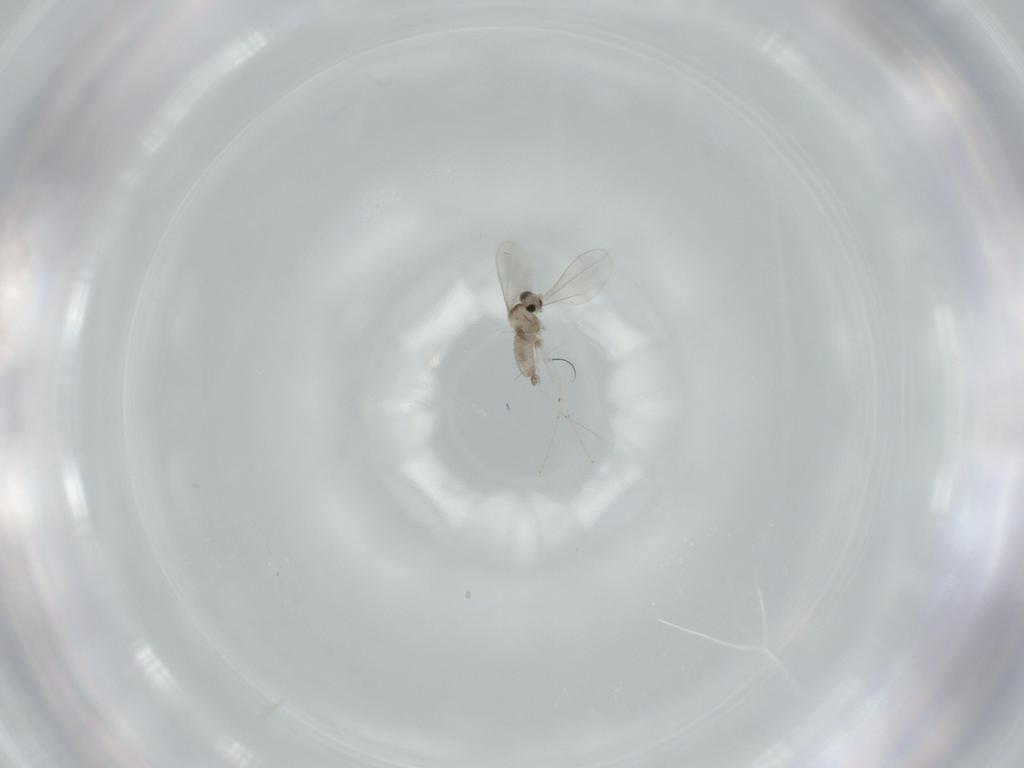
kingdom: Animalia
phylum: Arthropoda
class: Insecta
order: Diptera
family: Cecidomyiidae
